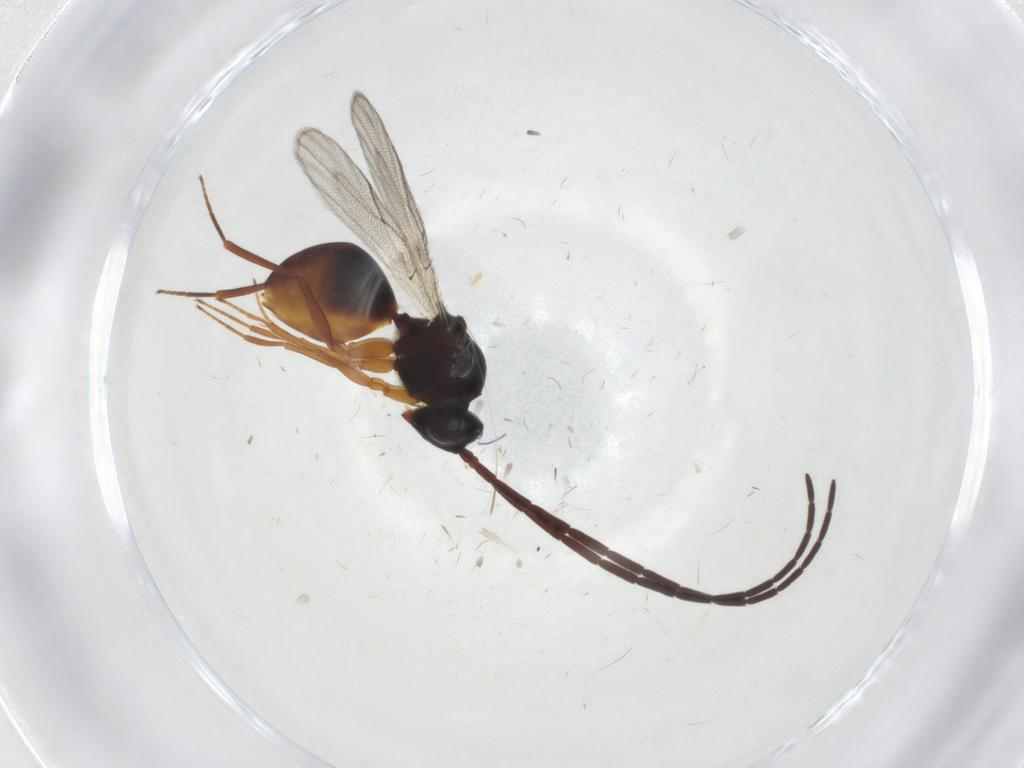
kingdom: Animalia
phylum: Arthropoda
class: Insecta
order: Hymenoptera
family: Figitidae
